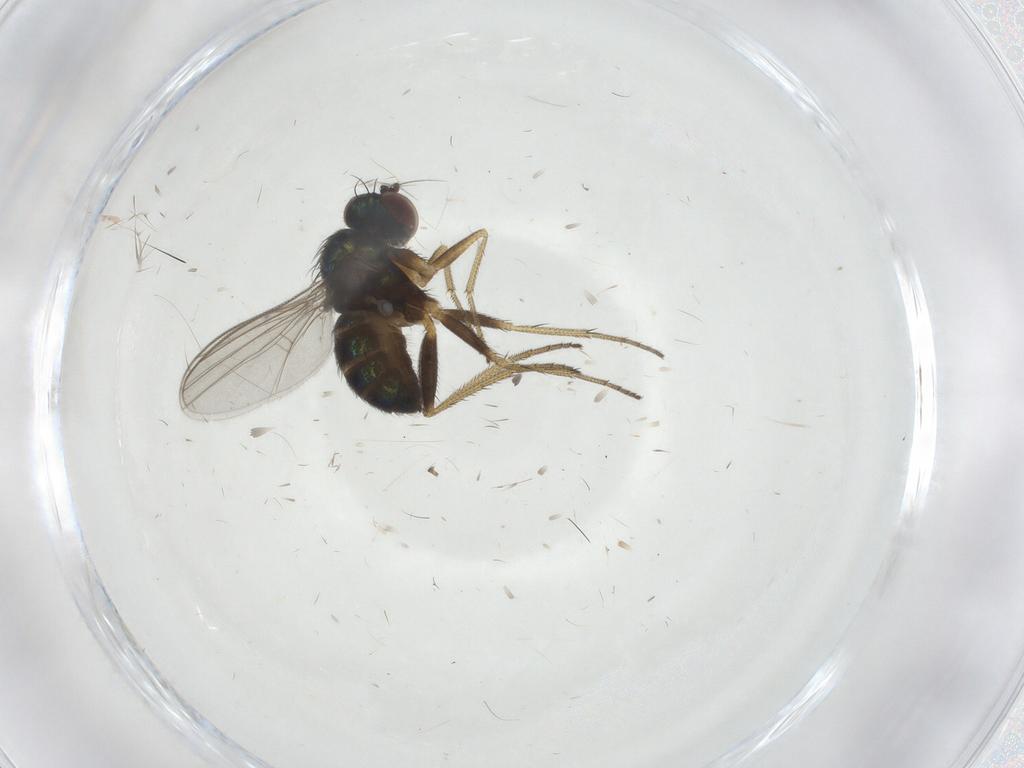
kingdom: Animalia
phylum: Arthropoda
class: Insecta
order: Diptera
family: Dolichopodidae
